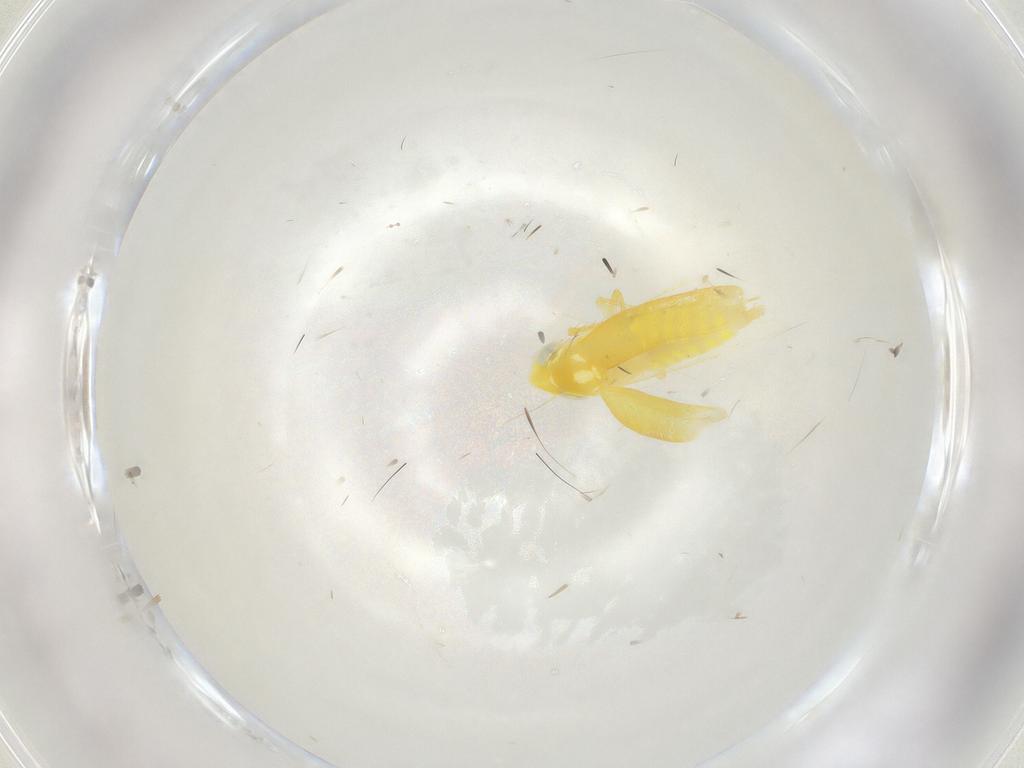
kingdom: Animalia
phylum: Arthropoda
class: Insecta
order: Hemiptera
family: Cicadellidae
